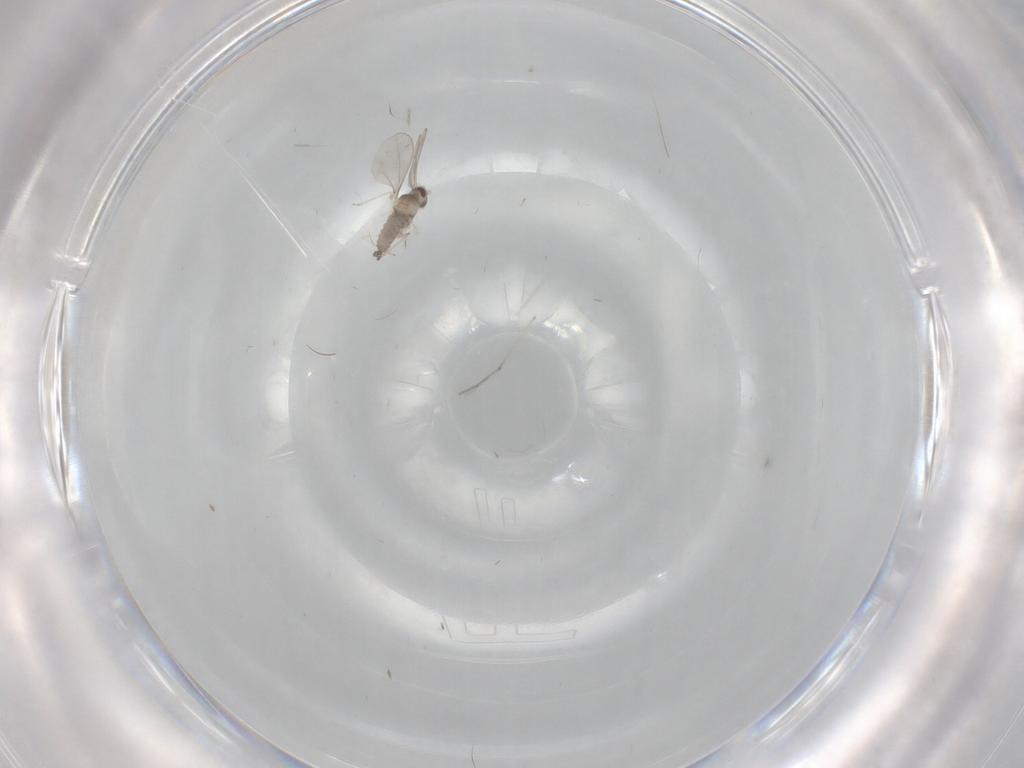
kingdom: Animalia
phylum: Arthropoda
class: Insecta
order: Diptera
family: Cecidomyiidae
